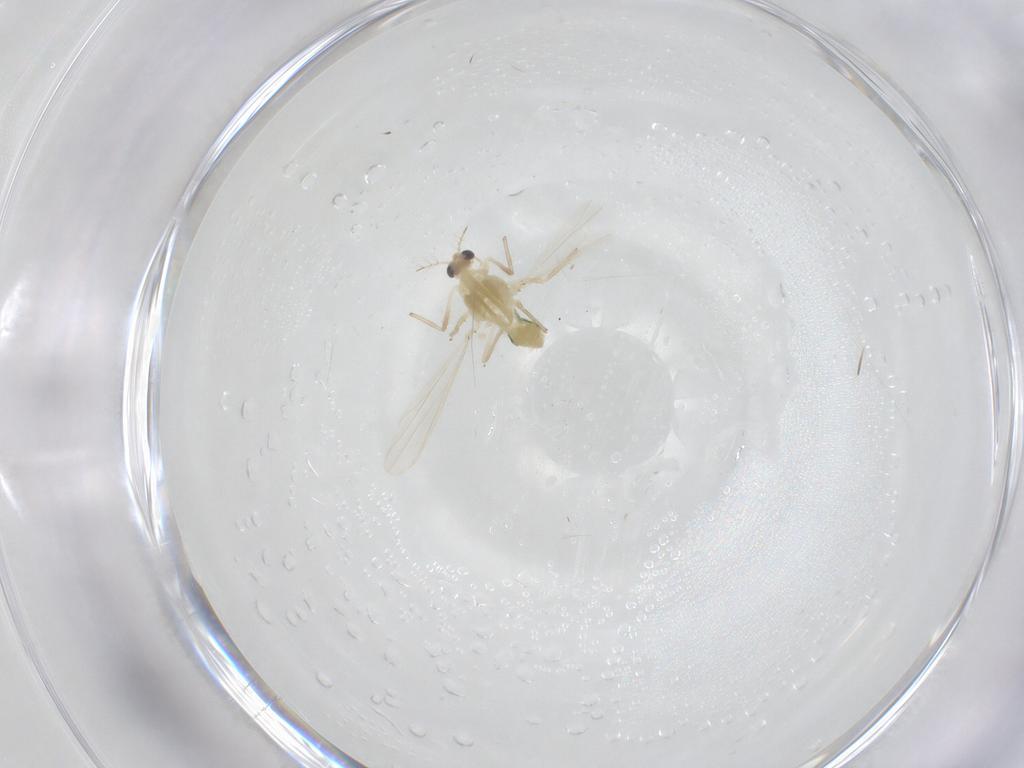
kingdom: Animalia
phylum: Arthropoda
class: Insecta
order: Diptera
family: Chironomidae
